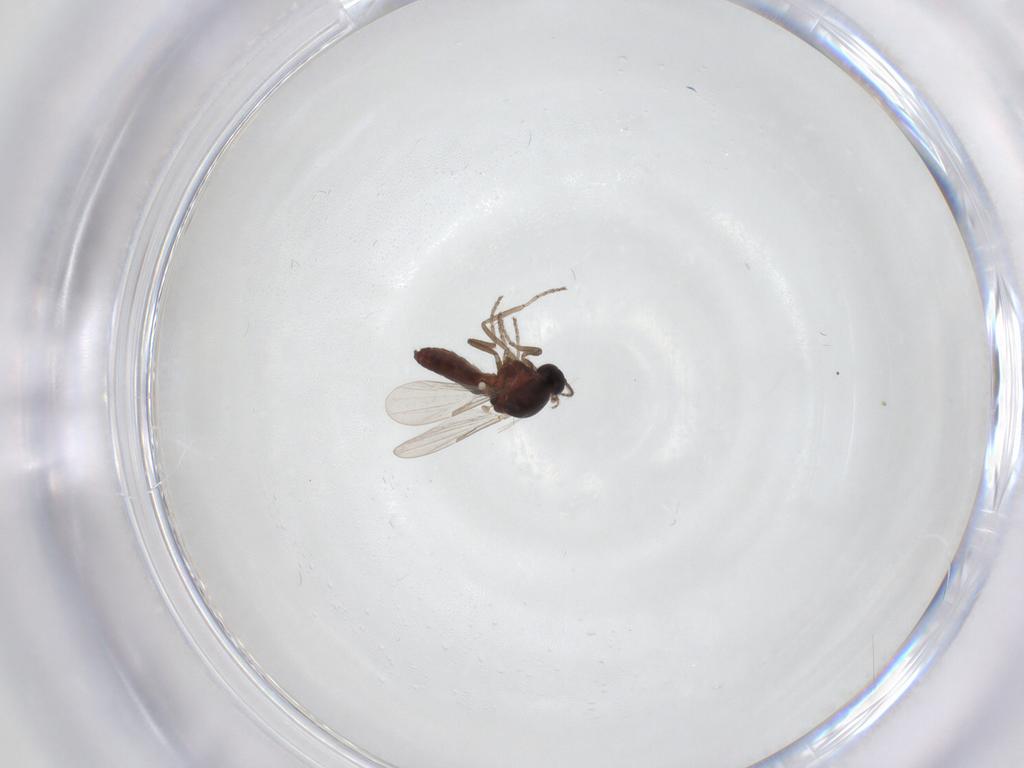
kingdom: Animalia
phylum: Arthropoda
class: Insecta
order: Diptera
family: Ceratopogonidae
